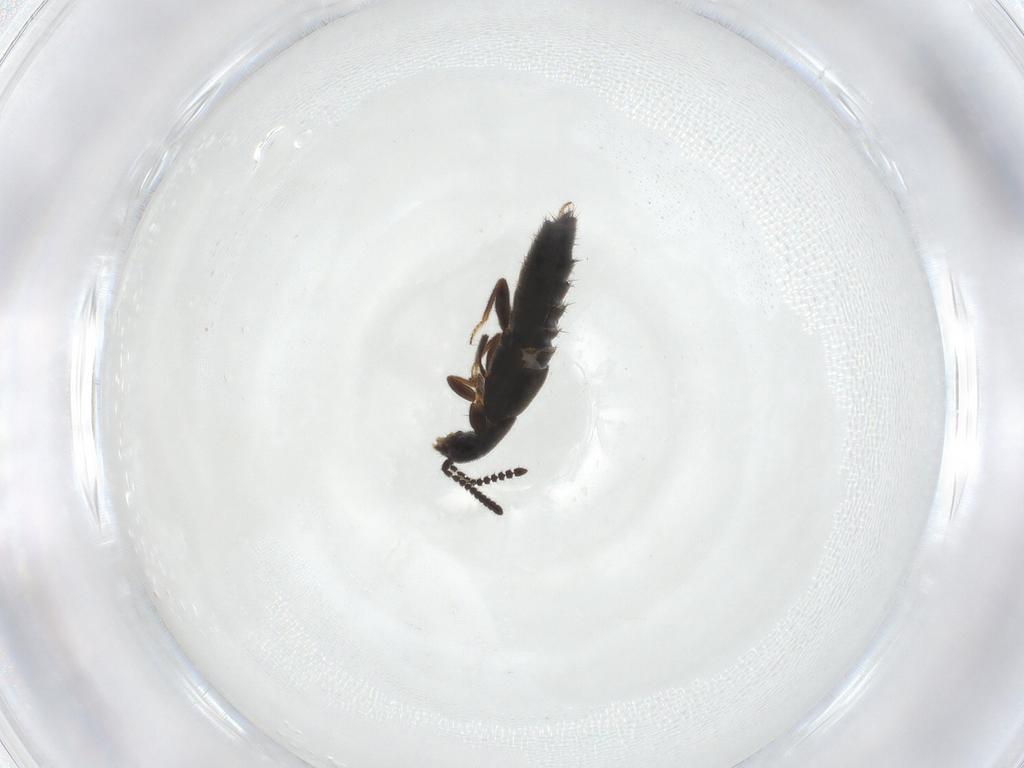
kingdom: Animalia
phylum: Arthropoda
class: Insecta
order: Coleoptera
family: Staphylinidae
